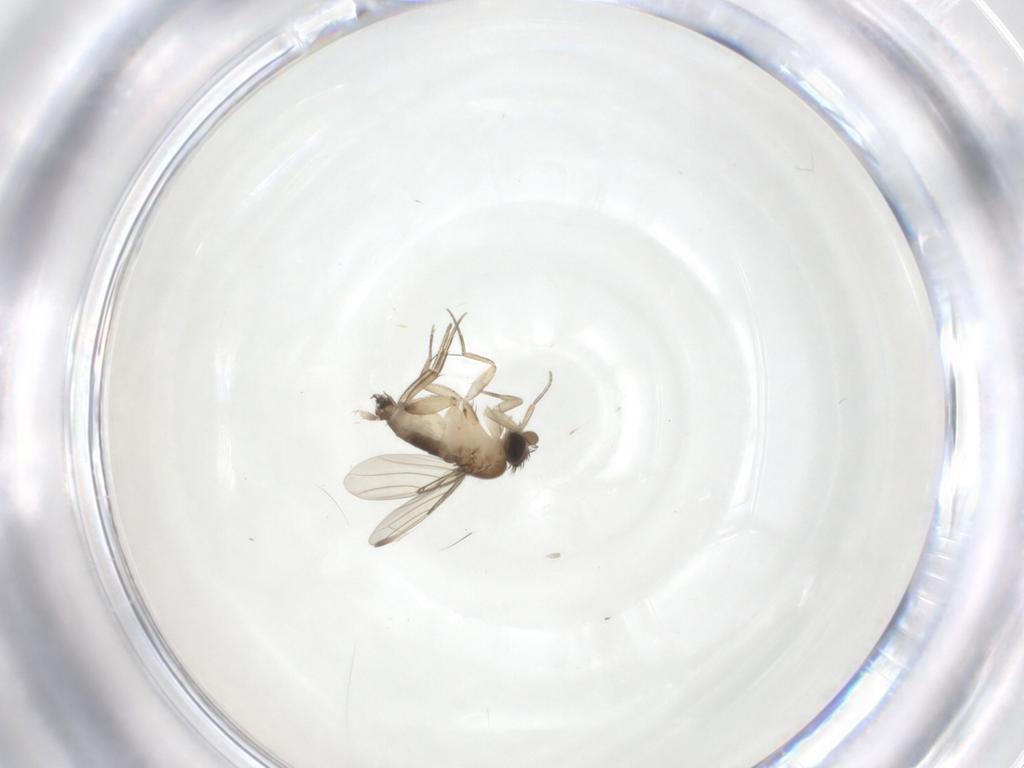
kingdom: Animalia
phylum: Arthropoda
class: Insecta
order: Diptera
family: Phoridae
